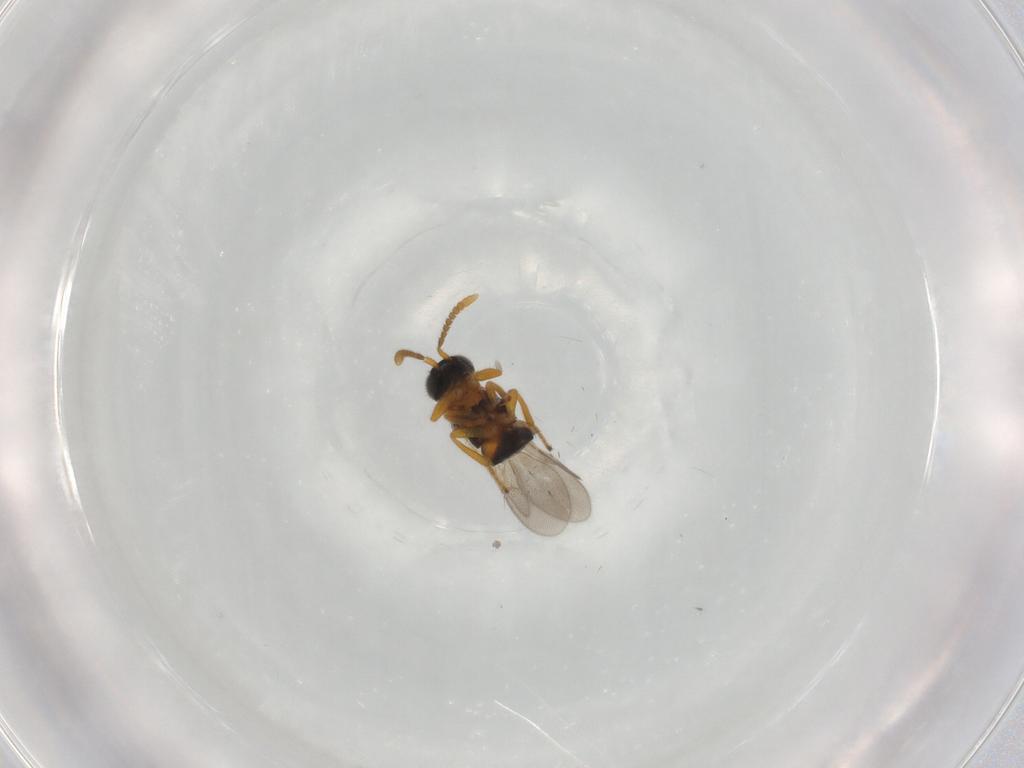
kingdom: Animalia
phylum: Arthropoda
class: Insecta
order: Hymenoptera
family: Encyrtidae
